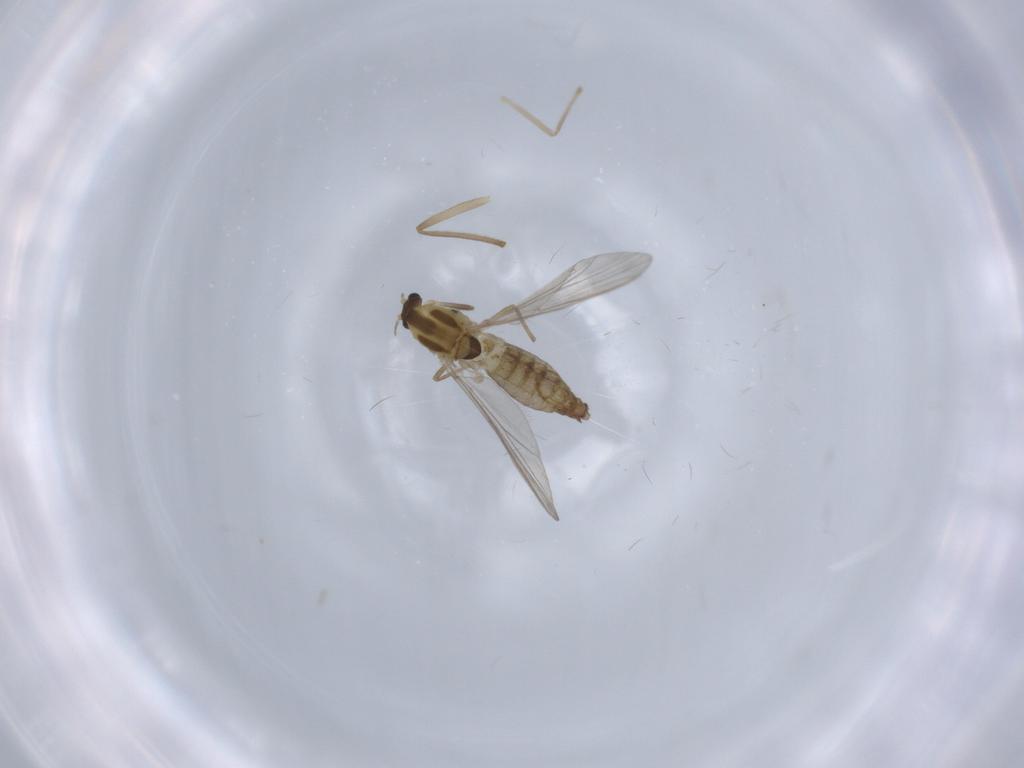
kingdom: Animalia
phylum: Arthropoda
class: Insecta
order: Diptera
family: Chironomidae
